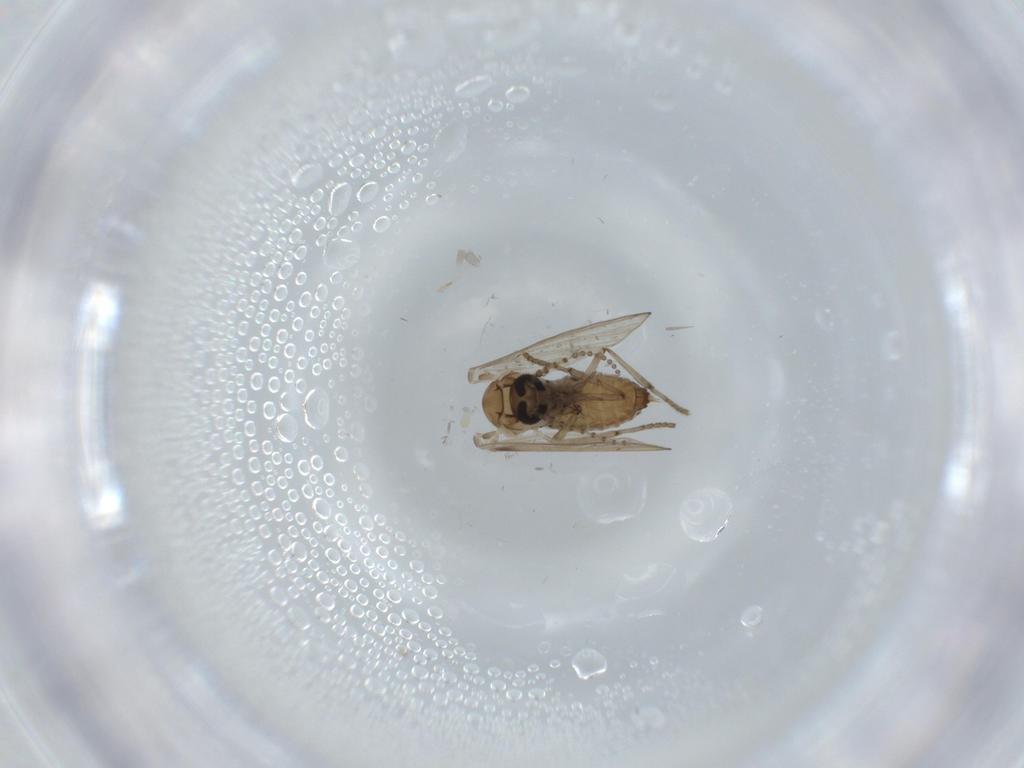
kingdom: Animalia
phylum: Arthropoda
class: Insecta
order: Diptera
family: Psychodidae
